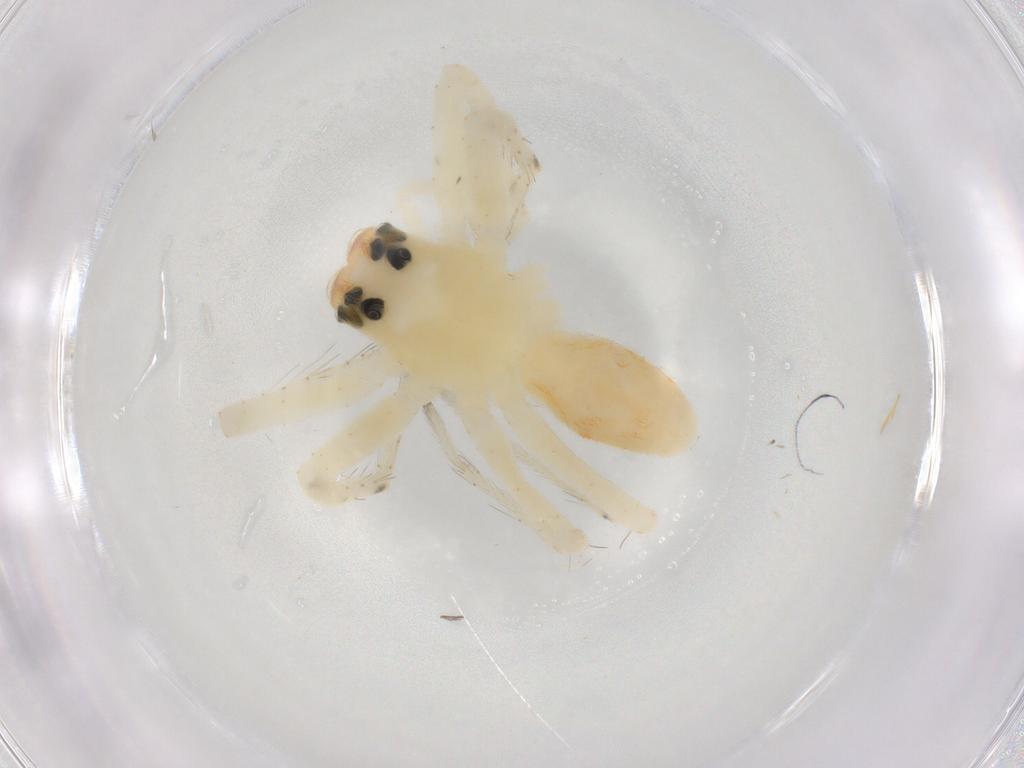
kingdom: Animalia
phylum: Arthropoda
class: Arachnida
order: Araneae
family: Salticidae
